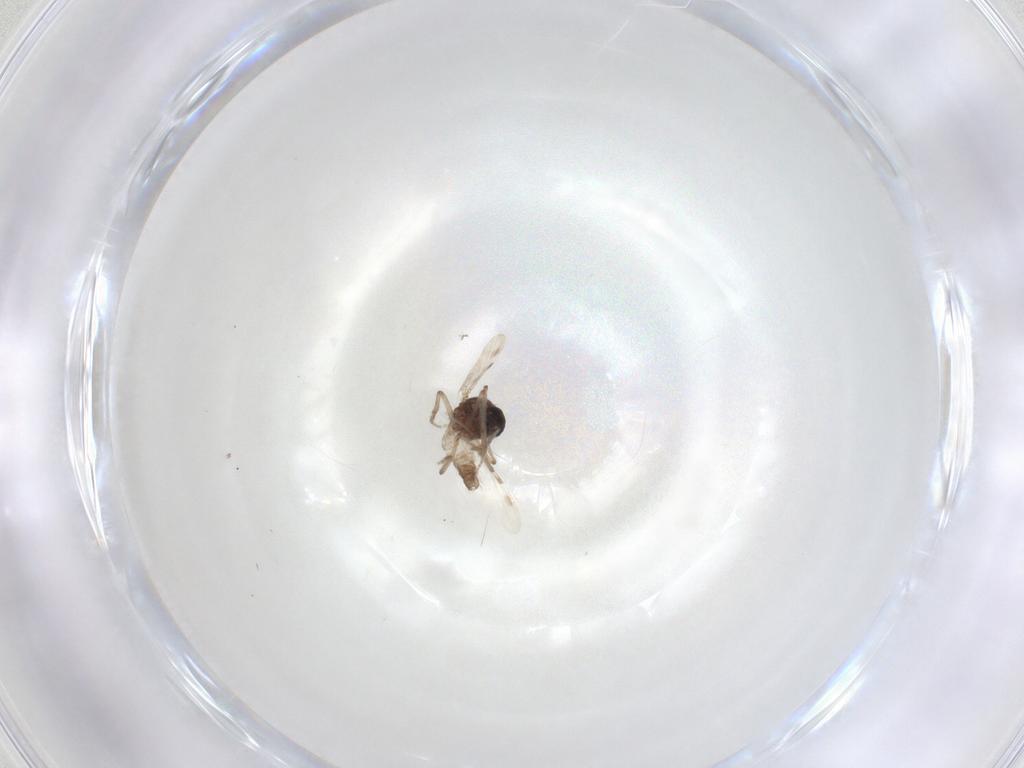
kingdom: Animalia
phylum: Arthropoda
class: Insecta
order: Diptera
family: Ceratopogonidae
